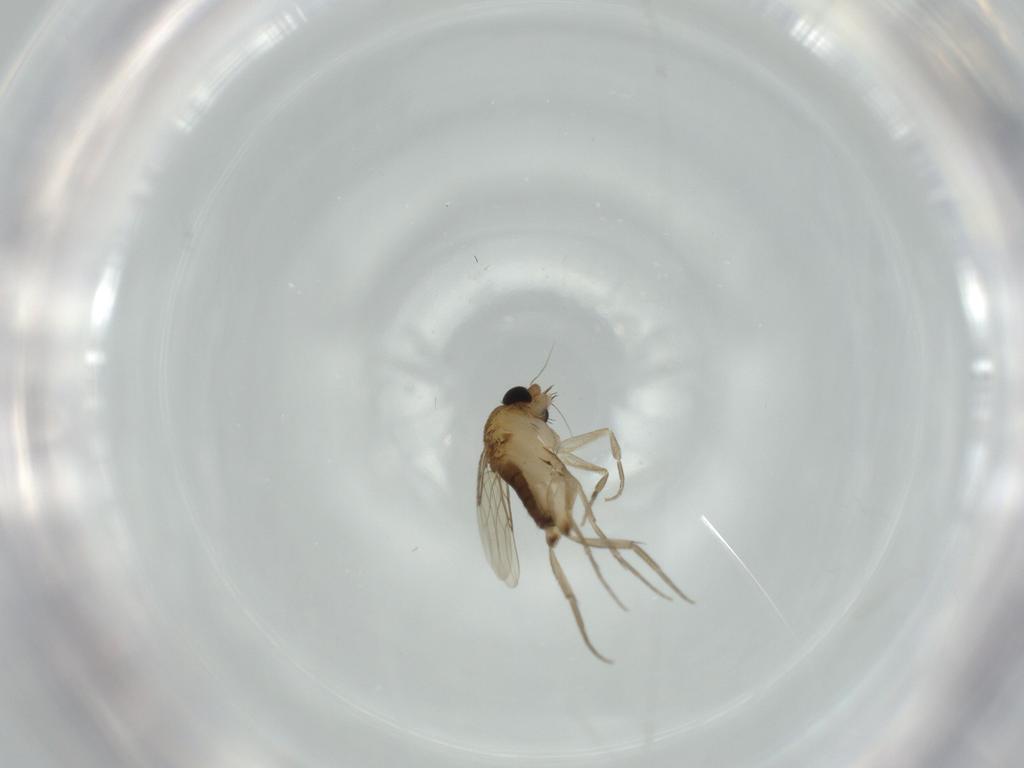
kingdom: Animalia
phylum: Arthropoda
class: Insecta
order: Diptera
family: Phoridae
